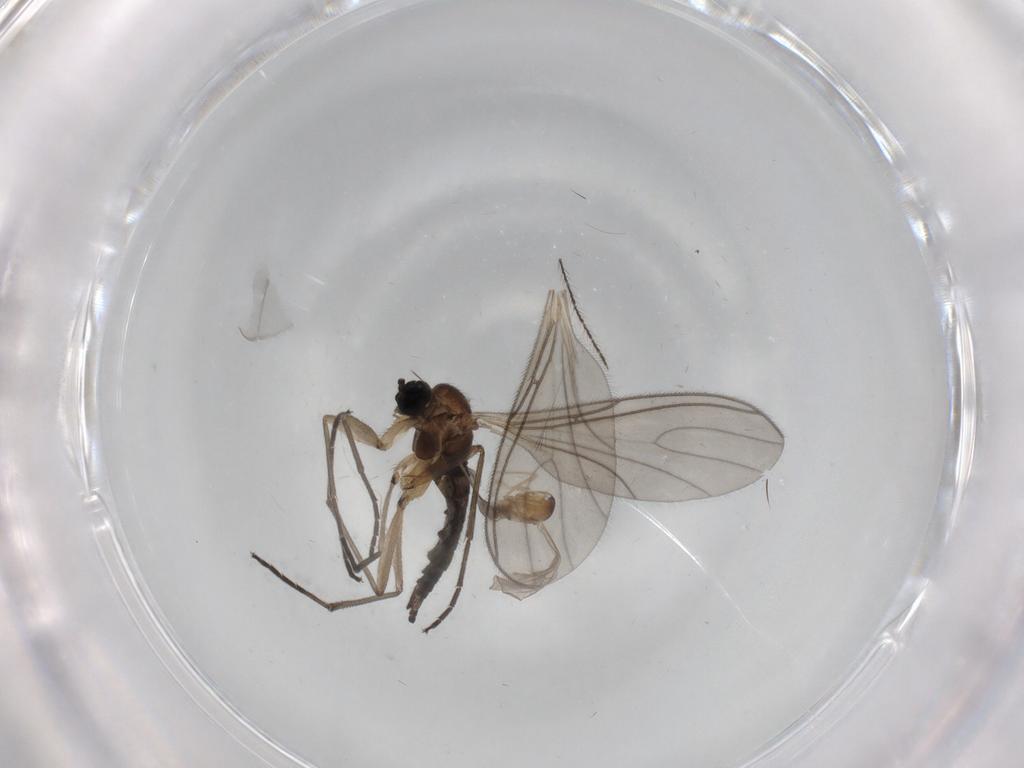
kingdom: Animalia
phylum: Arthropoda
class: Insecta
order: Diptera
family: Sciaridae
